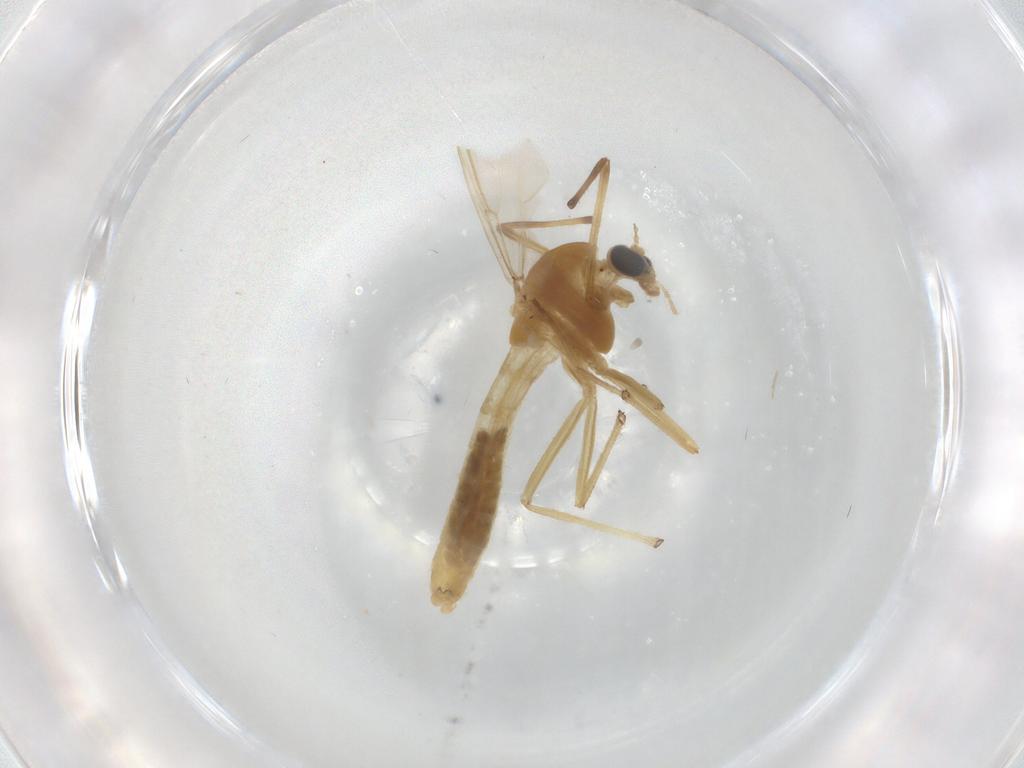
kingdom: Animalia
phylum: Arthropoda
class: Insecta
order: Diptera
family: Chironomidae
